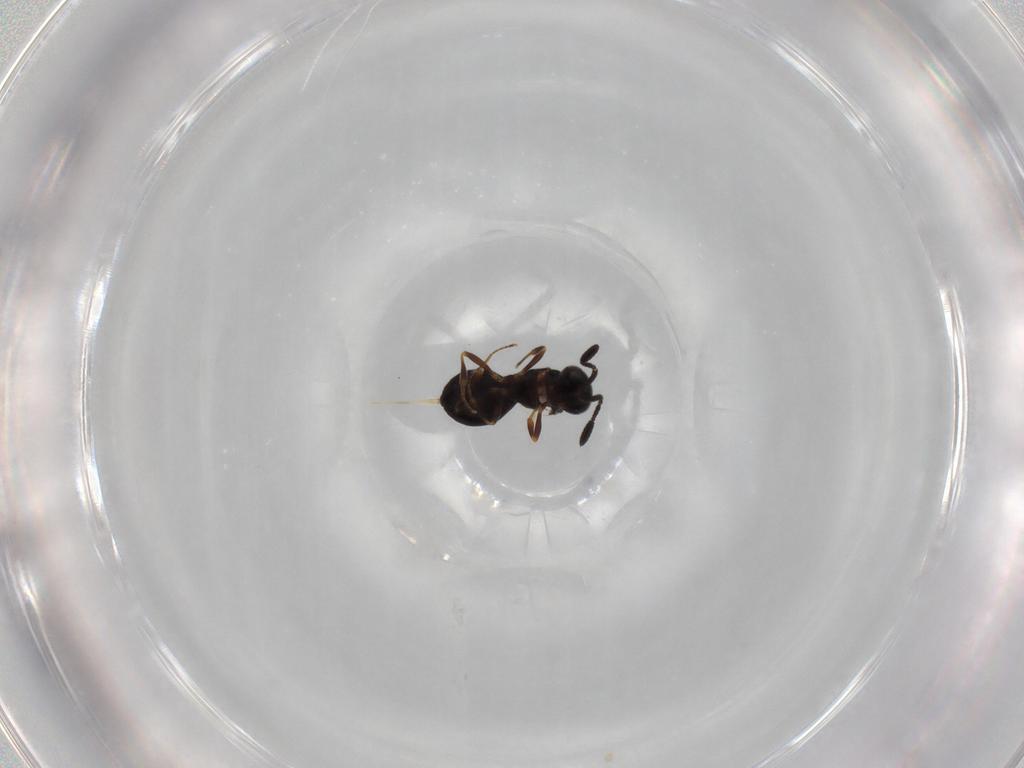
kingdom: Animalia
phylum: Arthropoda
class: Insecta
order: Hymenoptera
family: Scelionidae
